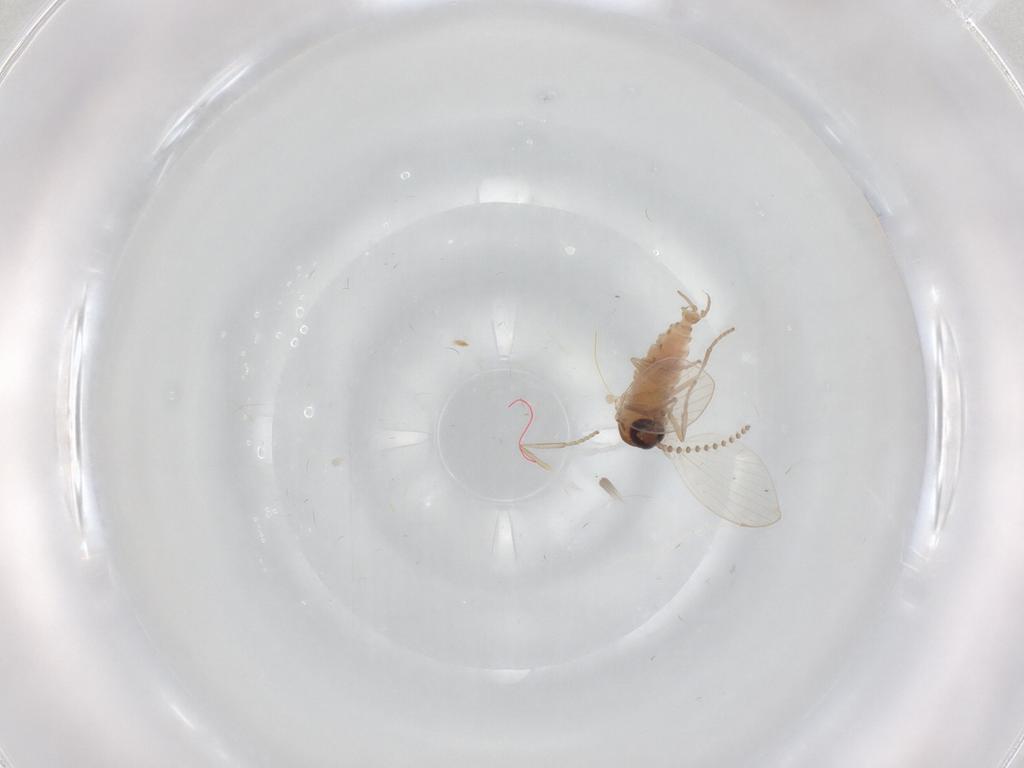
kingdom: Animalia
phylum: Arthropoda
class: Insecta
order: Diptera
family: Psychodidae
